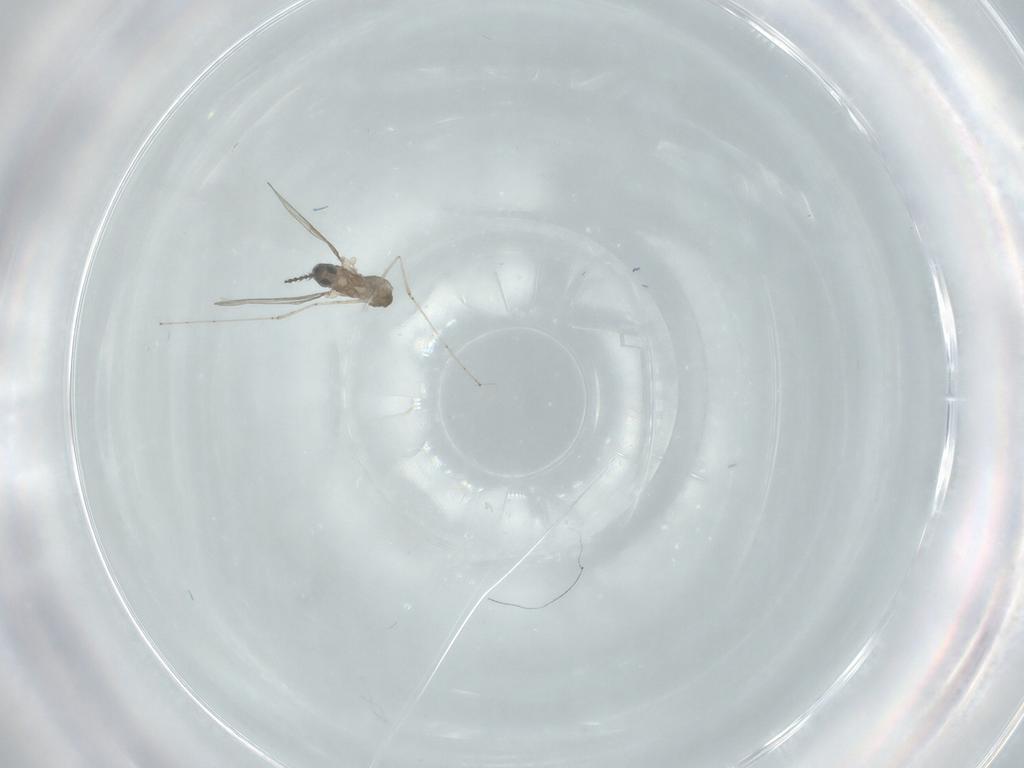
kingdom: Animalia
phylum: Arthropoda
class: Insecta
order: Diptera
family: Cecidomyiidae
